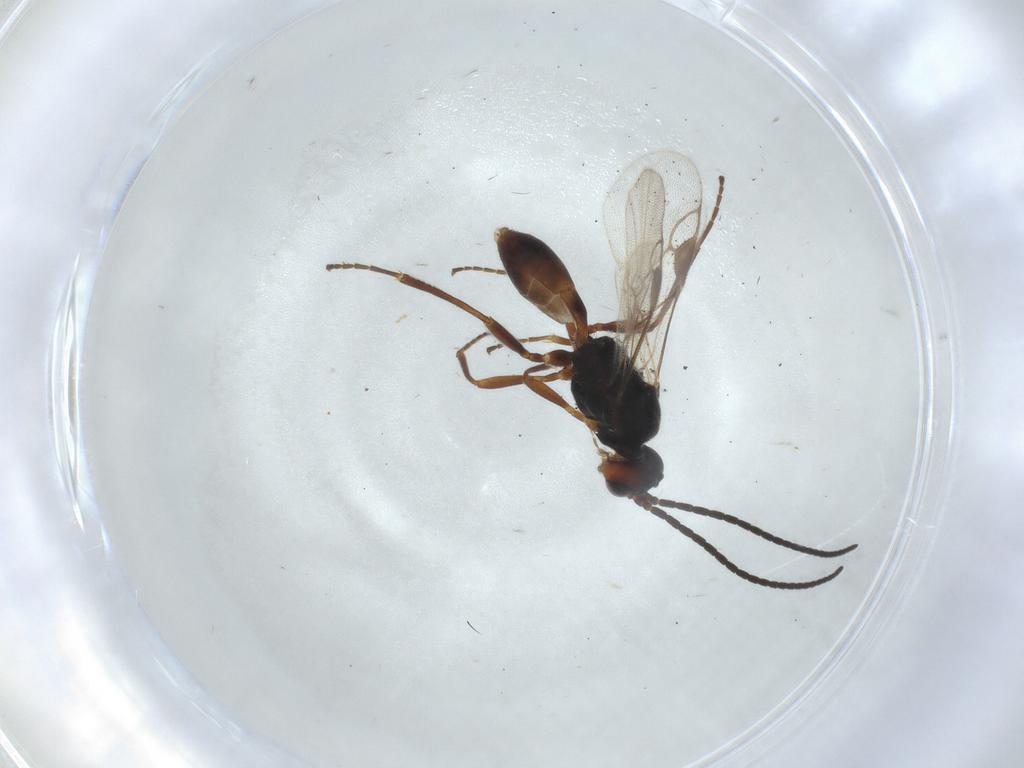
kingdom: Animalia
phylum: Arthropoda
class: Insecta
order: Hymenoptera
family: Braconidae
